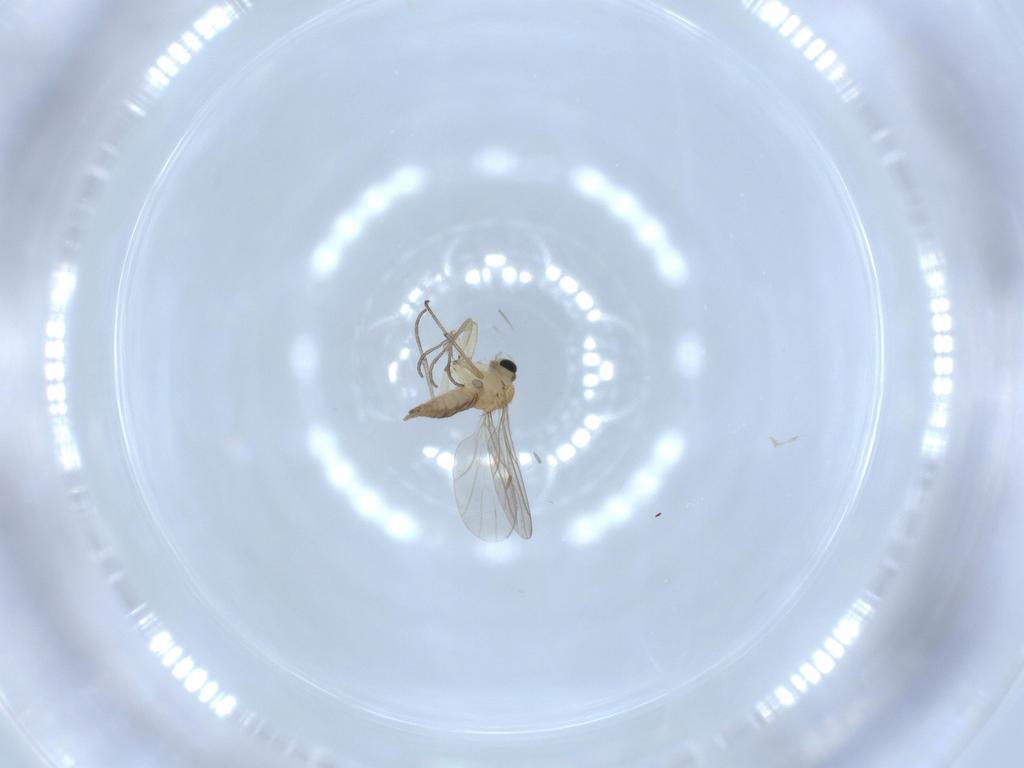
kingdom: Animalia
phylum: Arthropoda
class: Insecta
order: Diptera
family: Sciaridae
